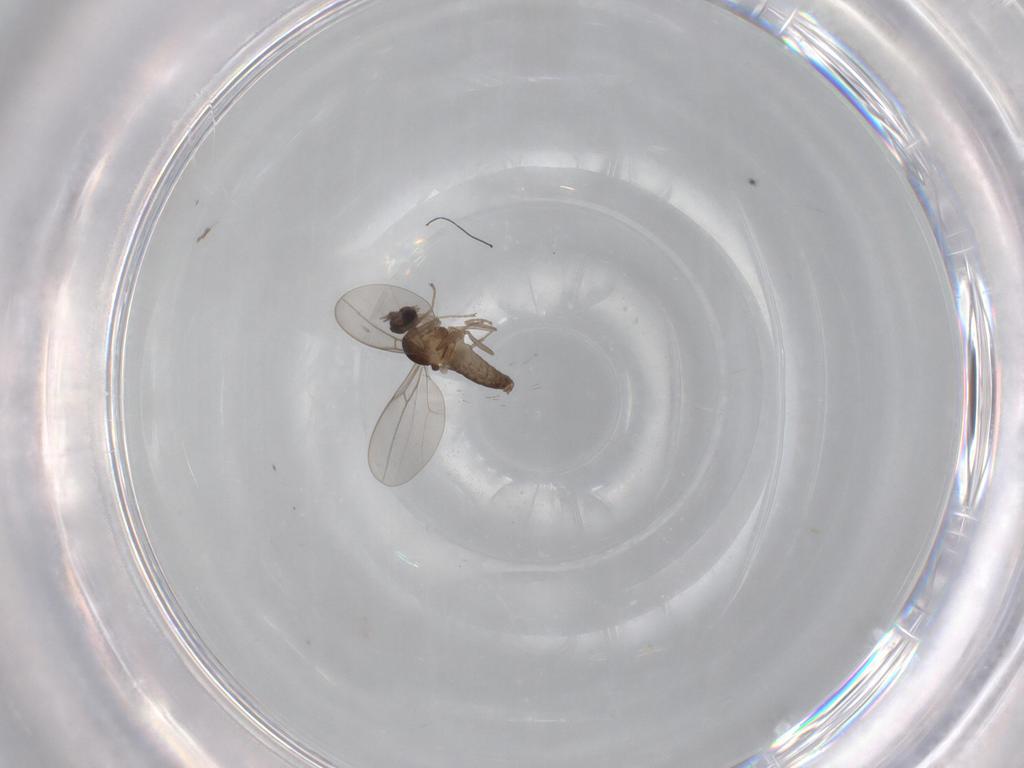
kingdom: Animalia
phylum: Arthropoda
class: Insecta
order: Diptera
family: Cecidomyiidae
